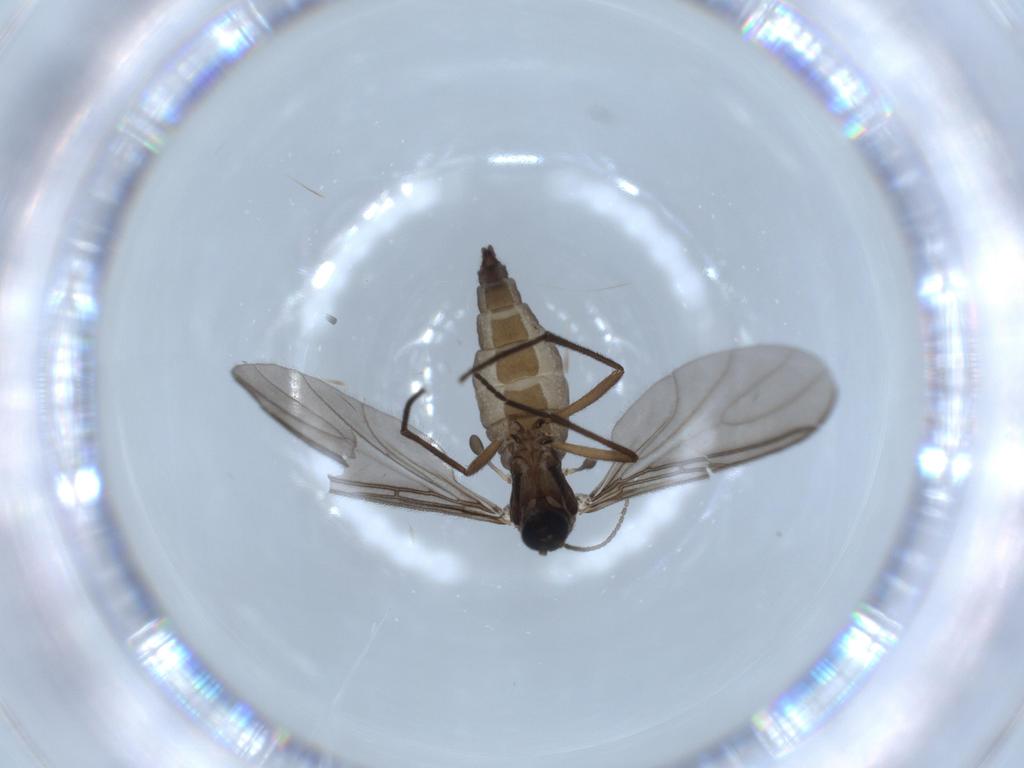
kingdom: Animalia
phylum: Arthropoda
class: Insecta
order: Diptera
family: Sciaridae
